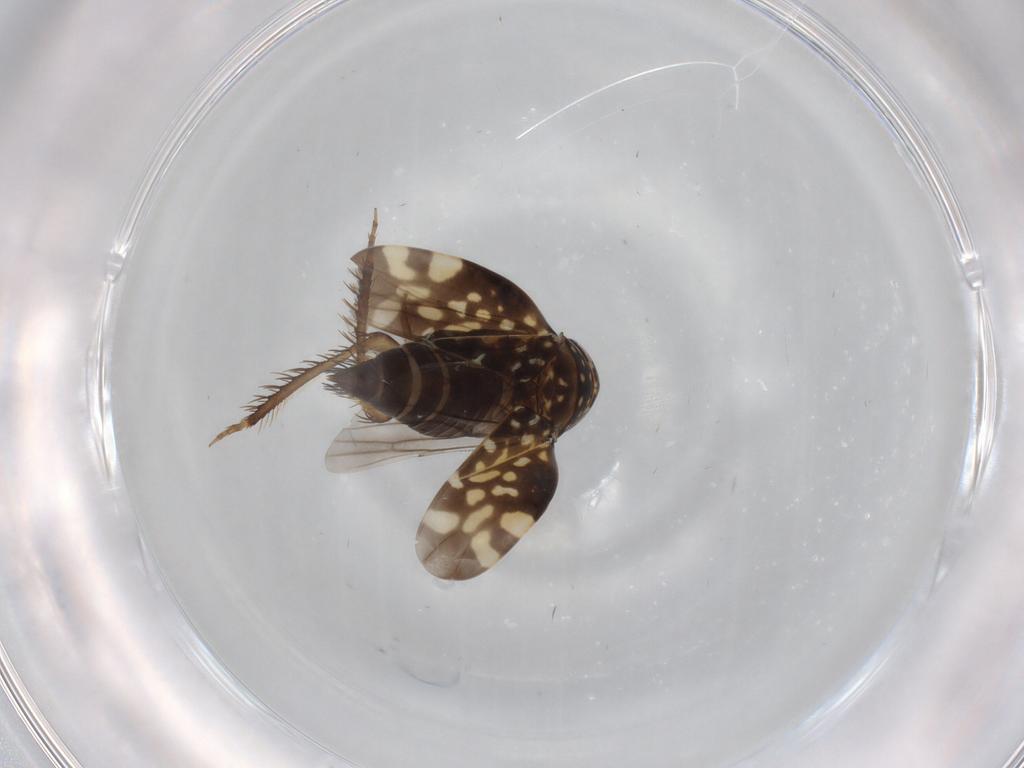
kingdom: Animalia
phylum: Arthropoda
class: Insecta
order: Hemiptera
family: Cicadellidae
